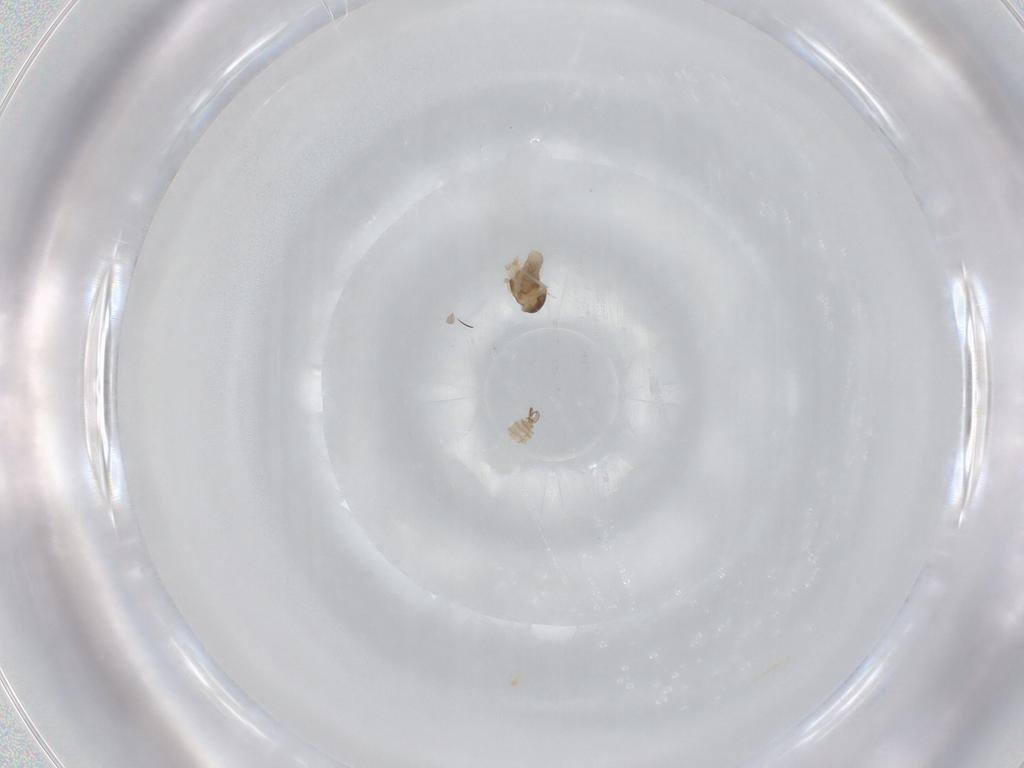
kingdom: Animalia
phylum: Arthropoda
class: Insecta
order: Diptera
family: Cecidomyiidae
